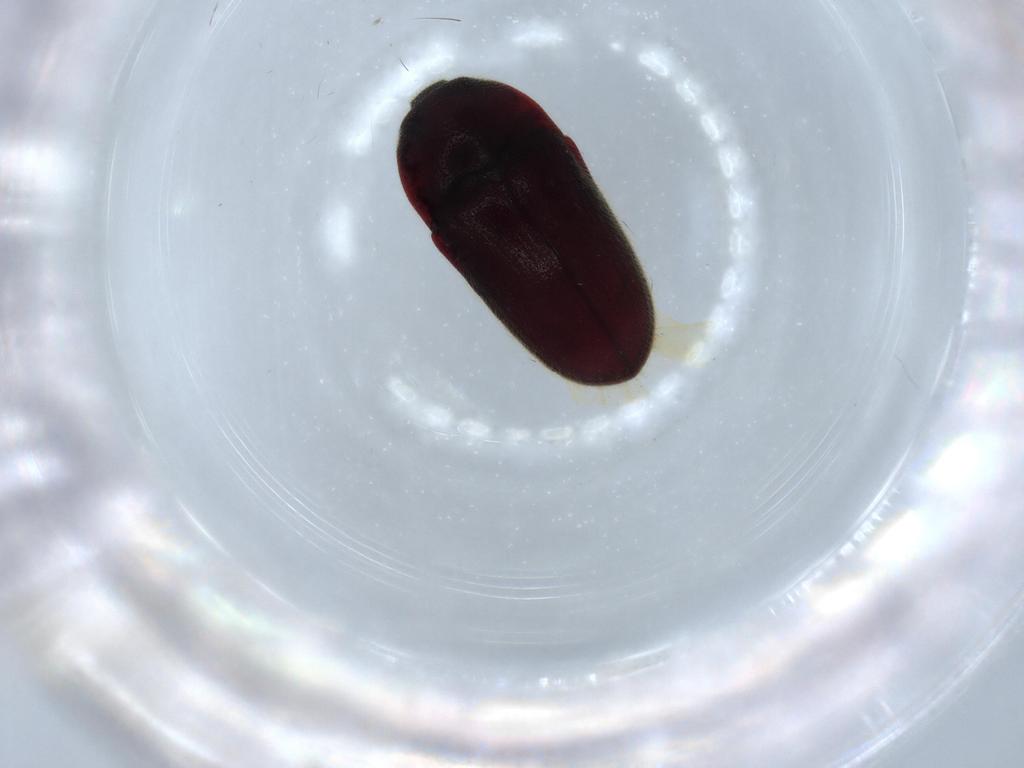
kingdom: Animalia
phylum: Arthropoda
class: Insecta
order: Coleoptera
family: Throscidae
